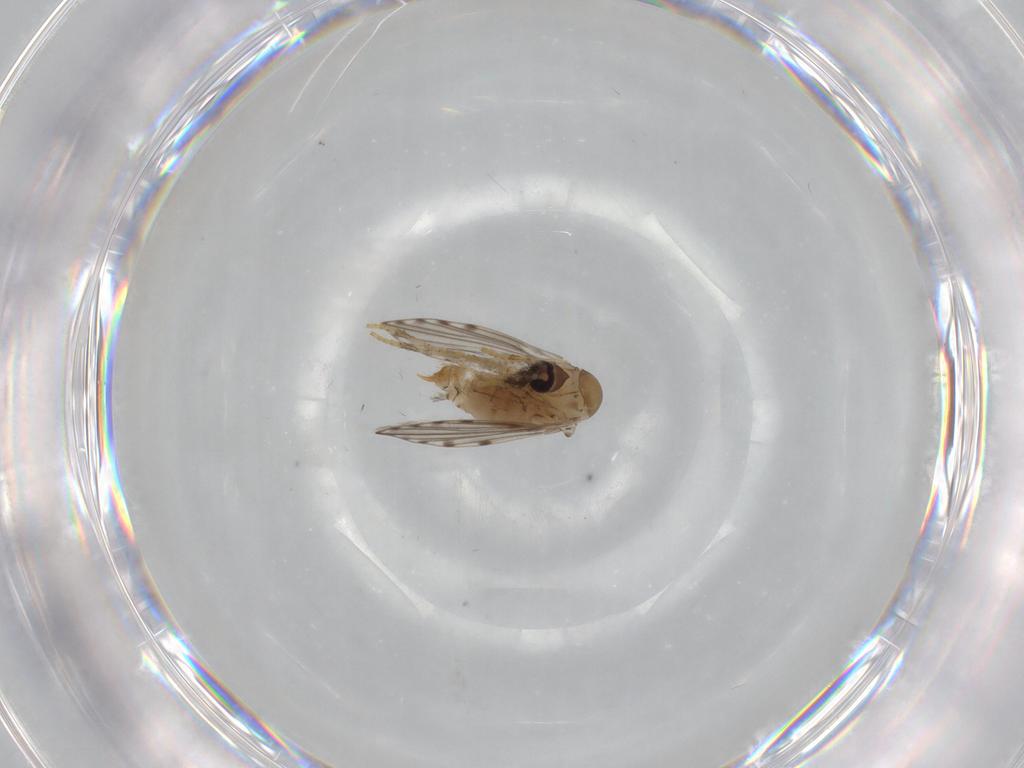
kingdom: Animalia
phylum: Arthropoda
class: Insecta
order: Diptera
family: Psychodidae
